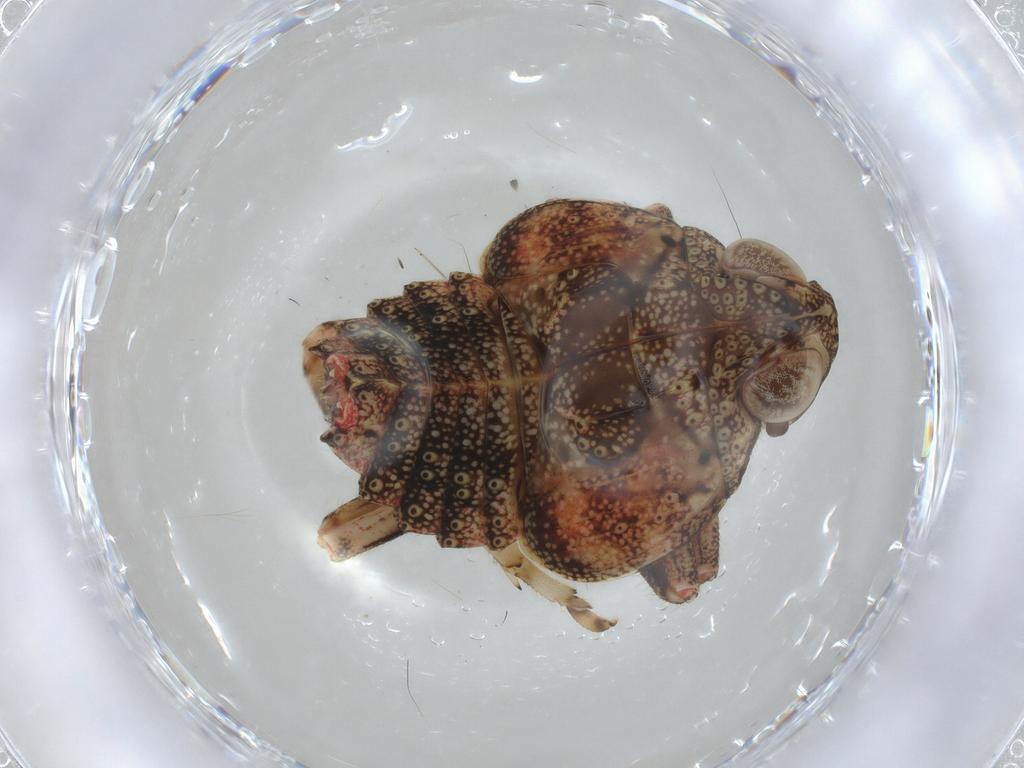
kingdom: Animalia
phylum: Arthropoda
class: Insecta
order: Hemiptera
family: Tropiduchidae
